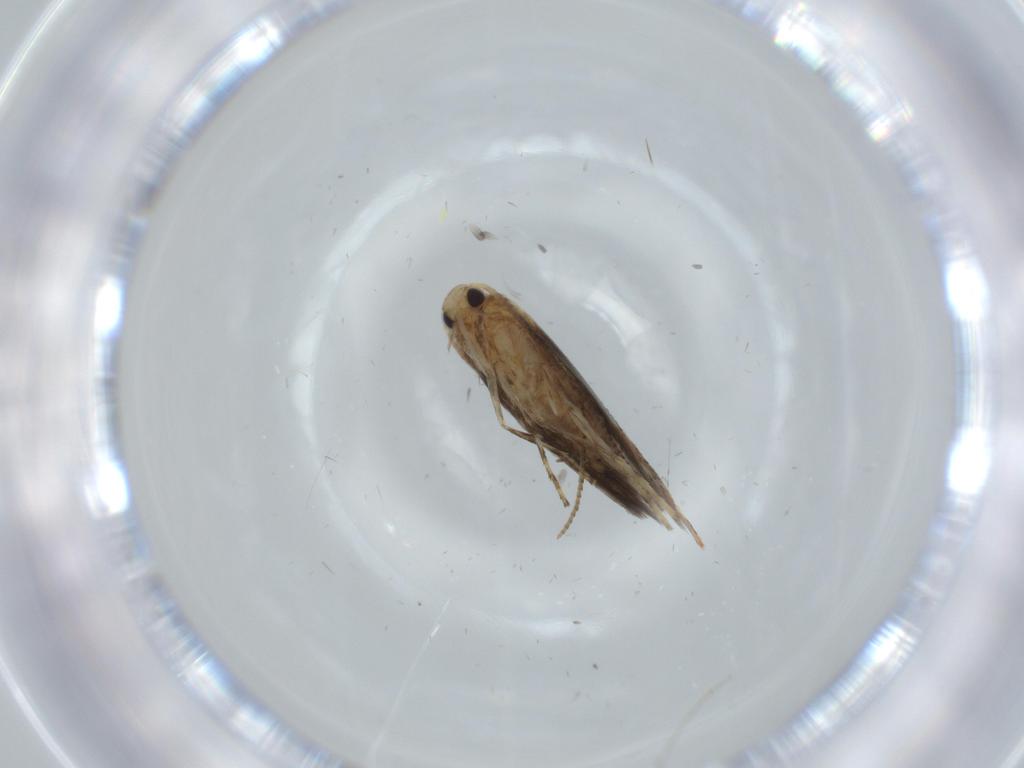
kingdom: Animalia
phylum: Arthropoda
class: Insecta
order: Lepidoptera
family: Gracillariidae
